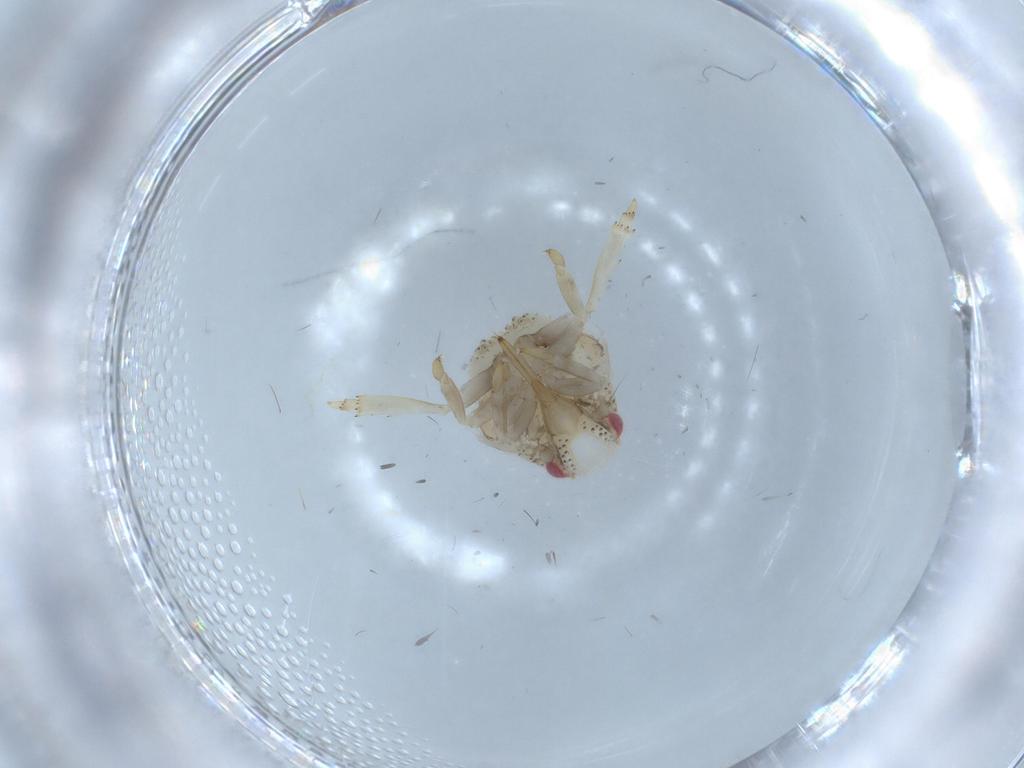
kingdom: Animalia
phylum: Arthropoda
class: Insecta
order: Hemiptera
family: Acanaloniidae
